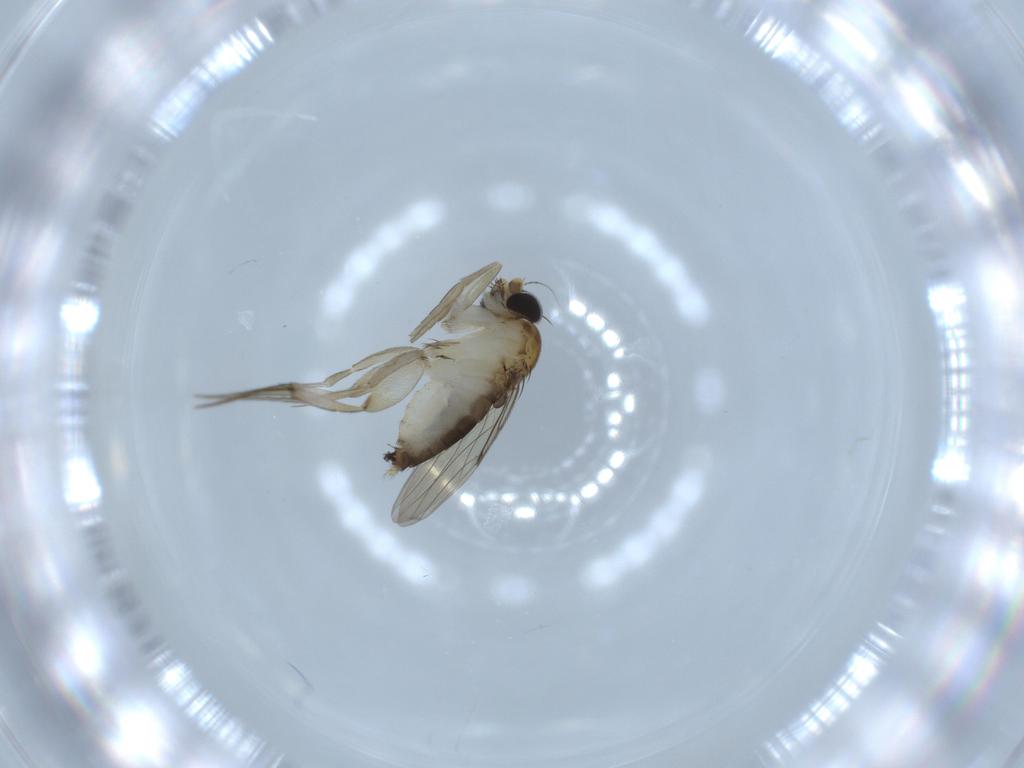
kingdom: Animalia
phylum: Arthropoda
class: Insecta
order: Diptera
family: Phoridae
